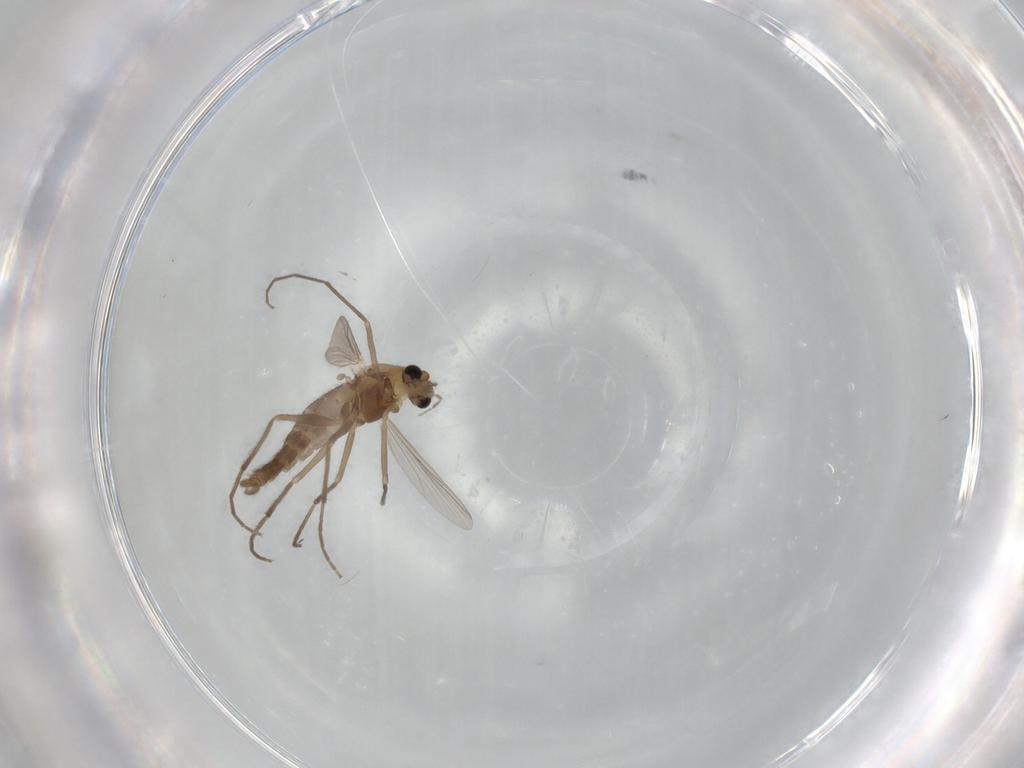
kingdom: Animalia
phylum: Arthropoda
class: Insecta
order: Diptera
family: Chironomidae
